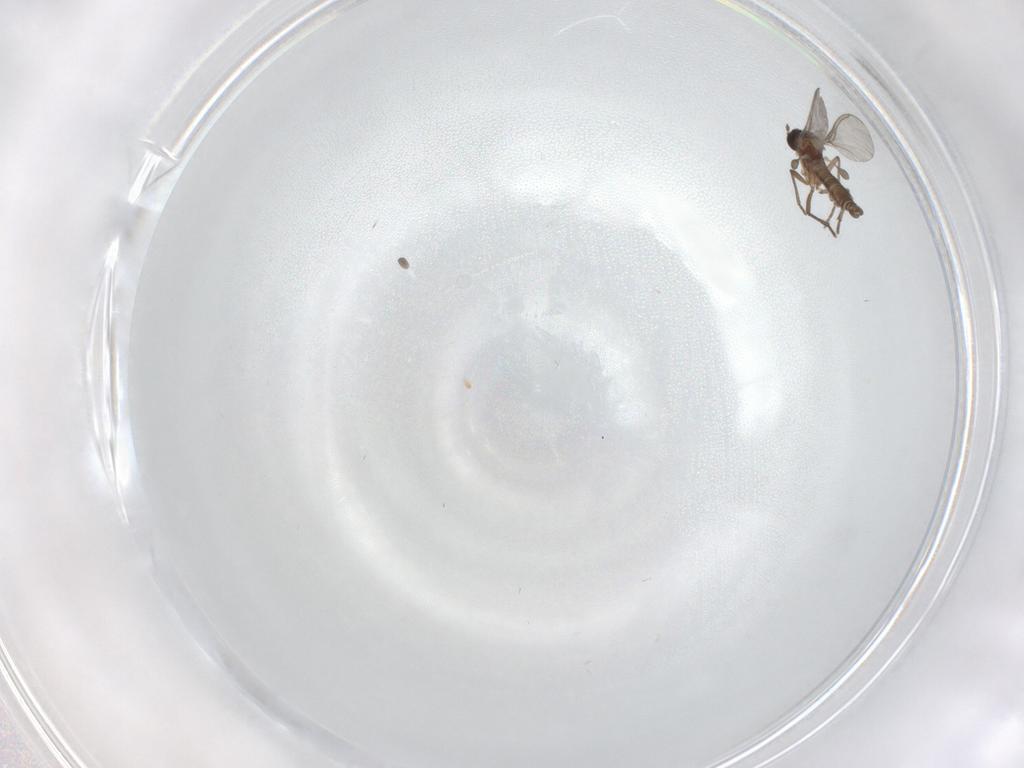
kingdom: Animalia
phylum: Arthropoda
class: Insecta
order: Diptera
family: Sciaridae
